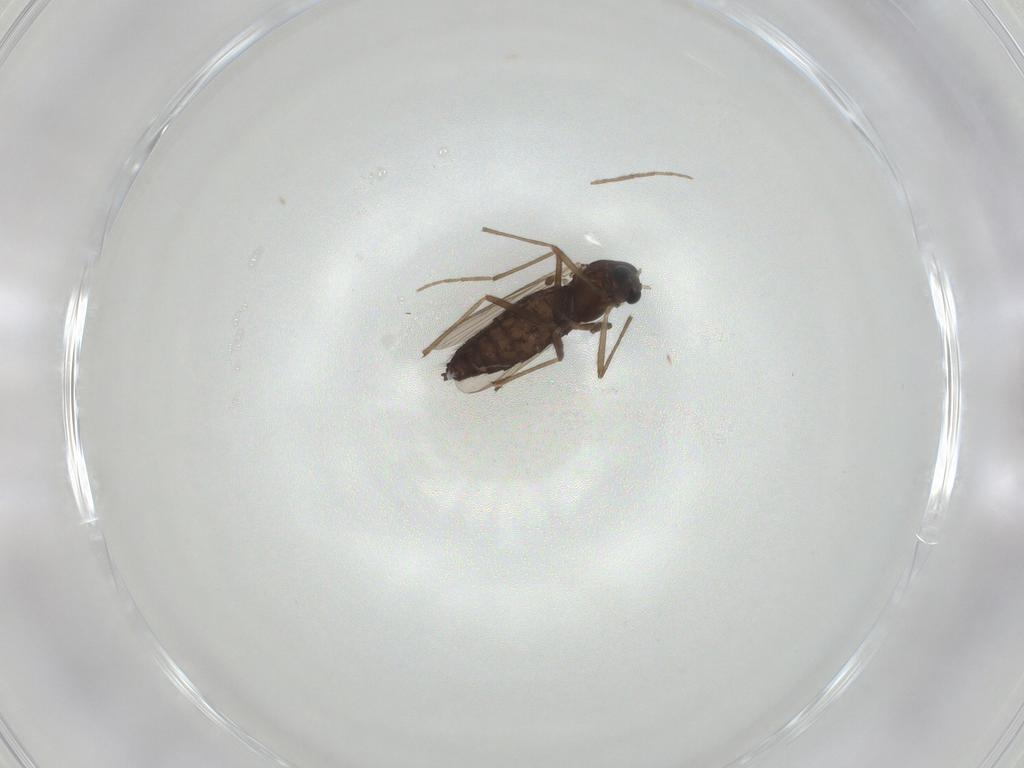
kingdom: Animalia
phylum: Arthropoda
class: Insecta
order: Diptera
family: Chironomidae
